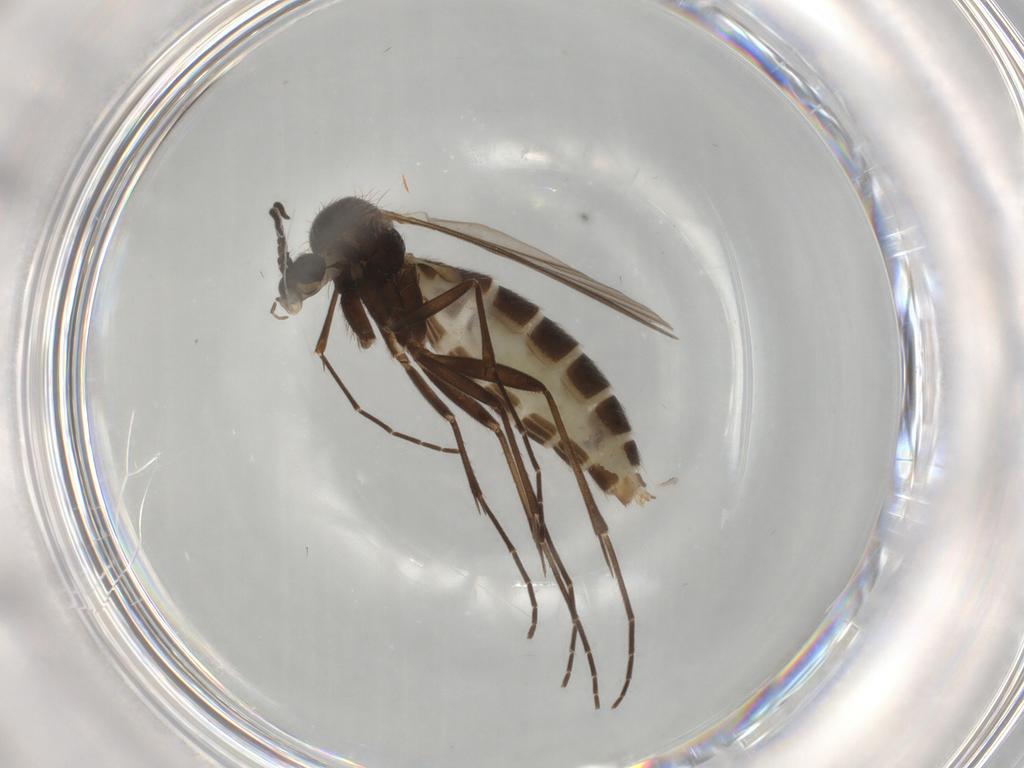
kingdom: Animalia
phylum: Arthropoda
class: Insecta
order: Diptera
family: Mycetophilidae
